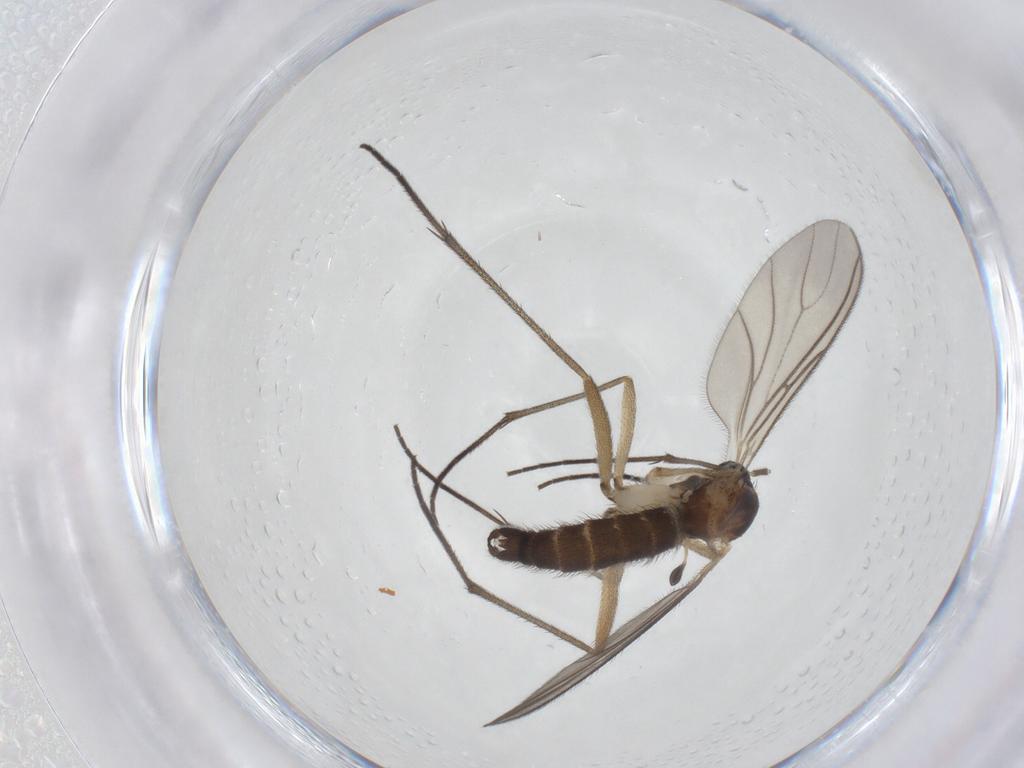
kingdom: Animalia
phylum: Arthropoda
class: Insecta
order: Diptera
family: Sciaridae
